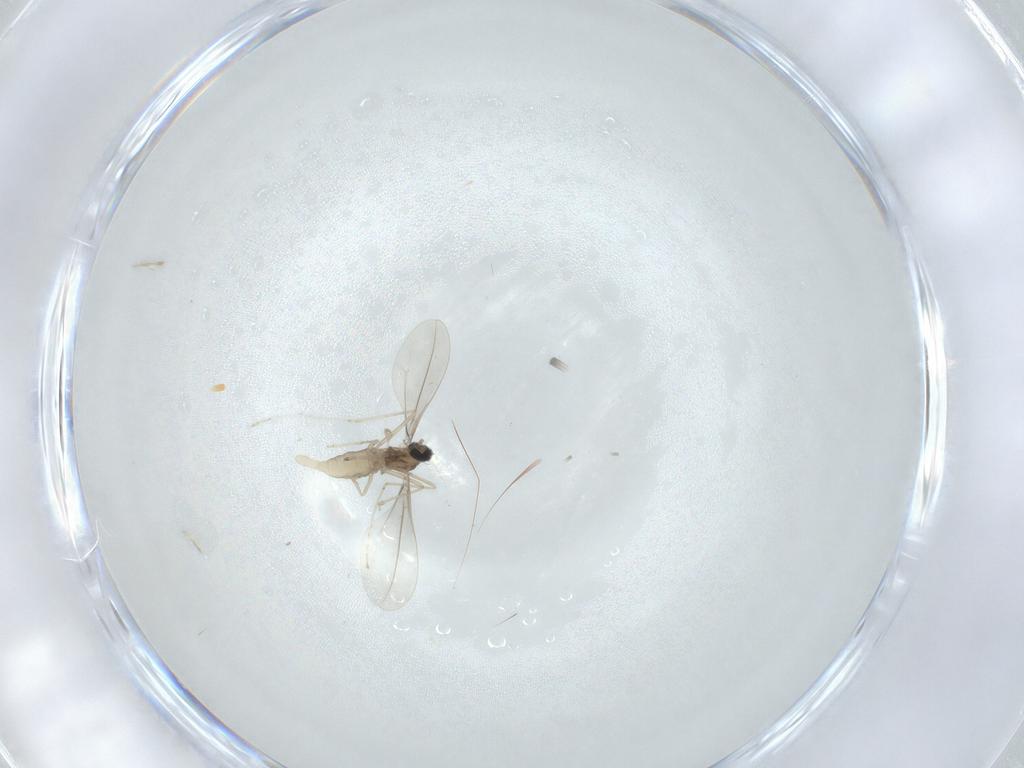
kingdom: Animalia
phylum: Arthropoda
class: Insecta
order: Diptera
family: Cecidomyiidae
